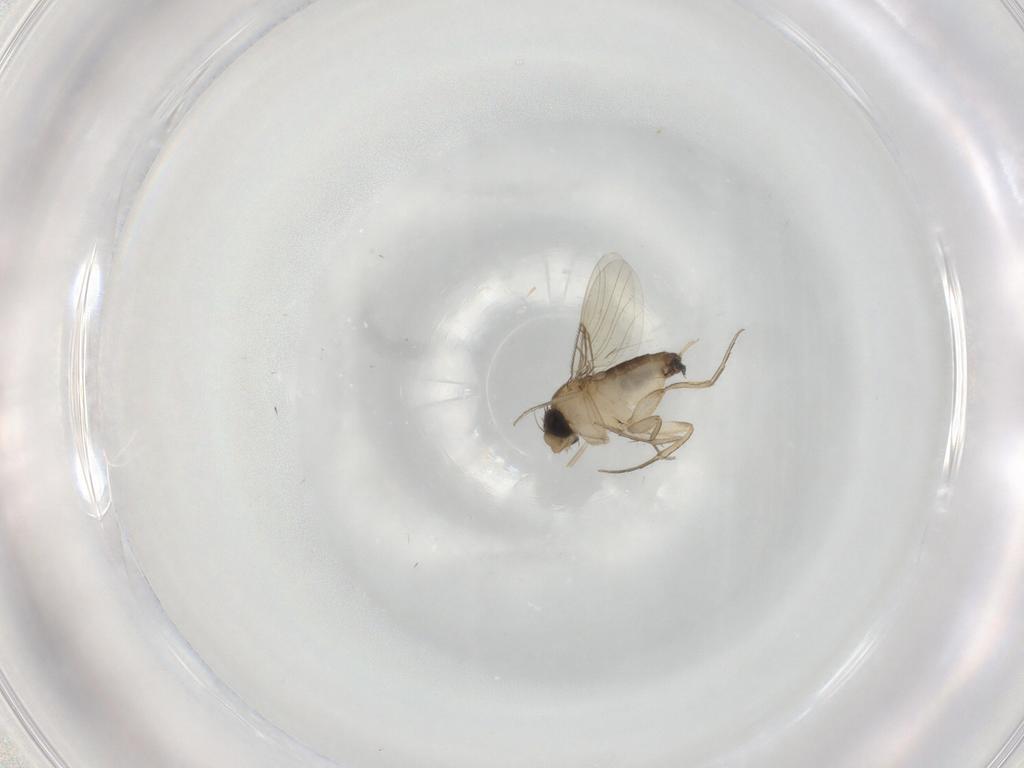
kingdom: Animalia
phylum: Arthropoda
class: Insecta
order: Diptera
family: Phoridae
